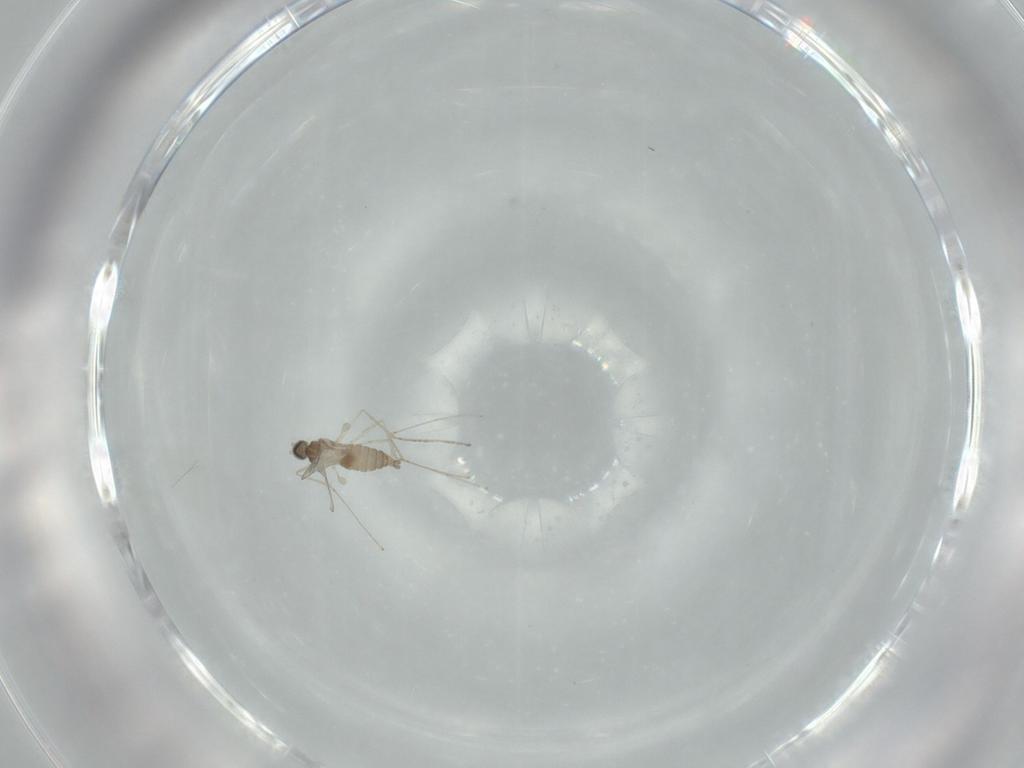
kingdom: Animalia
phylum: Arthropoda
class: Insecta
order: Diptera
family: Cecidomyiidae
